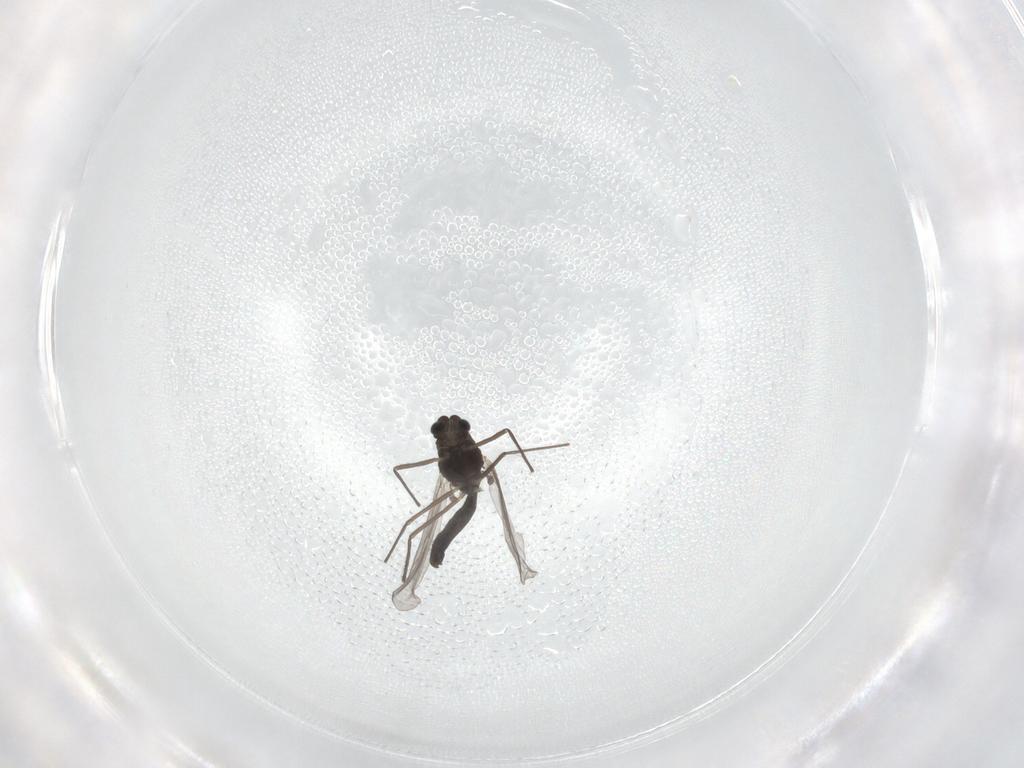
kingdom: Animalia
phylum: Arthropoda
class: Insecta
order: Diptera
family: Chironomidae
